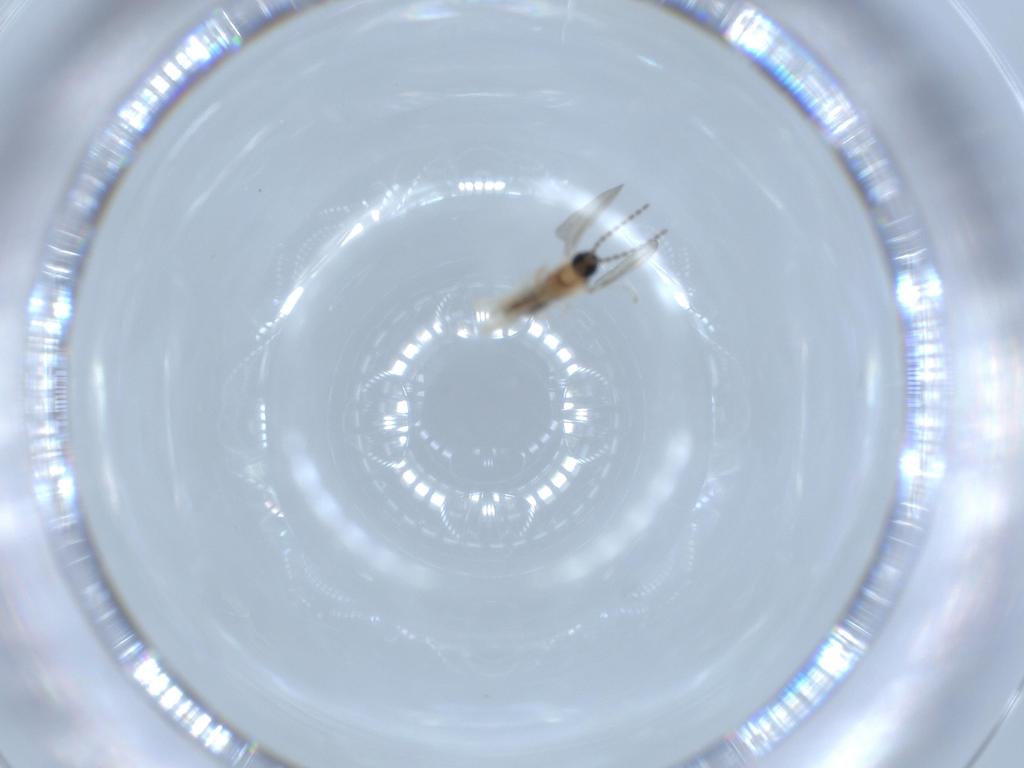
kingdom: Animalia
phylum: Arthropoda
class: Insecta
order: Diptera
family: Cecidomyiidae
